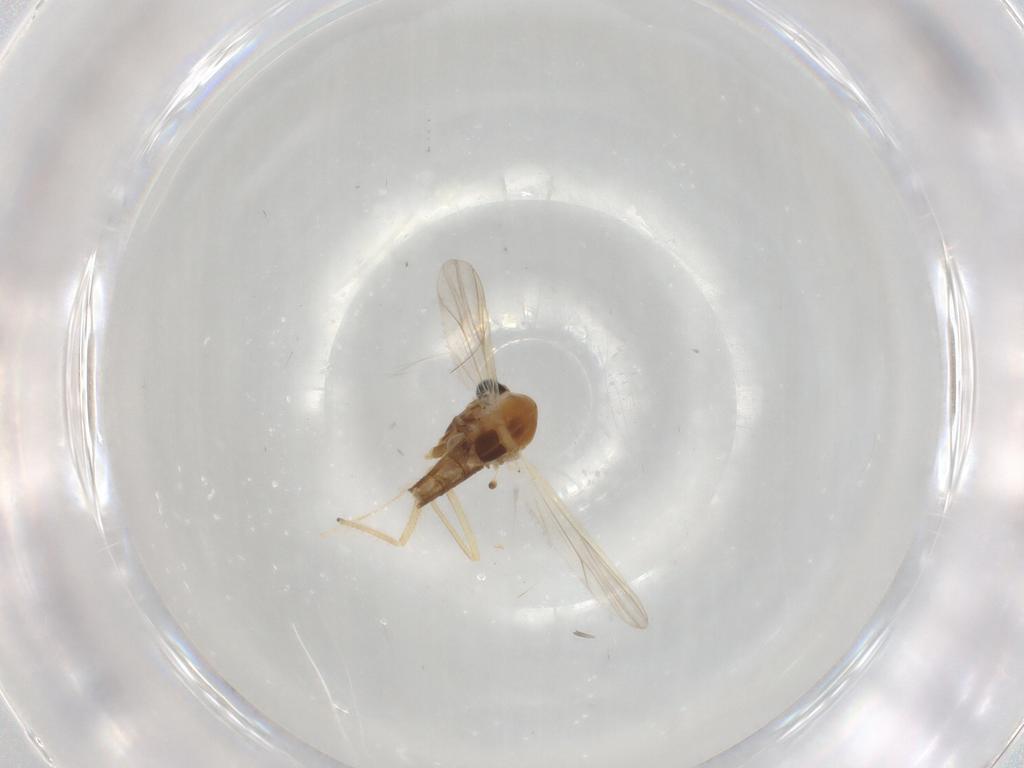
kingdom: Animalia
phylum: Arthropoda
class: Insecta
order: Diptera
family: Chironomidae
